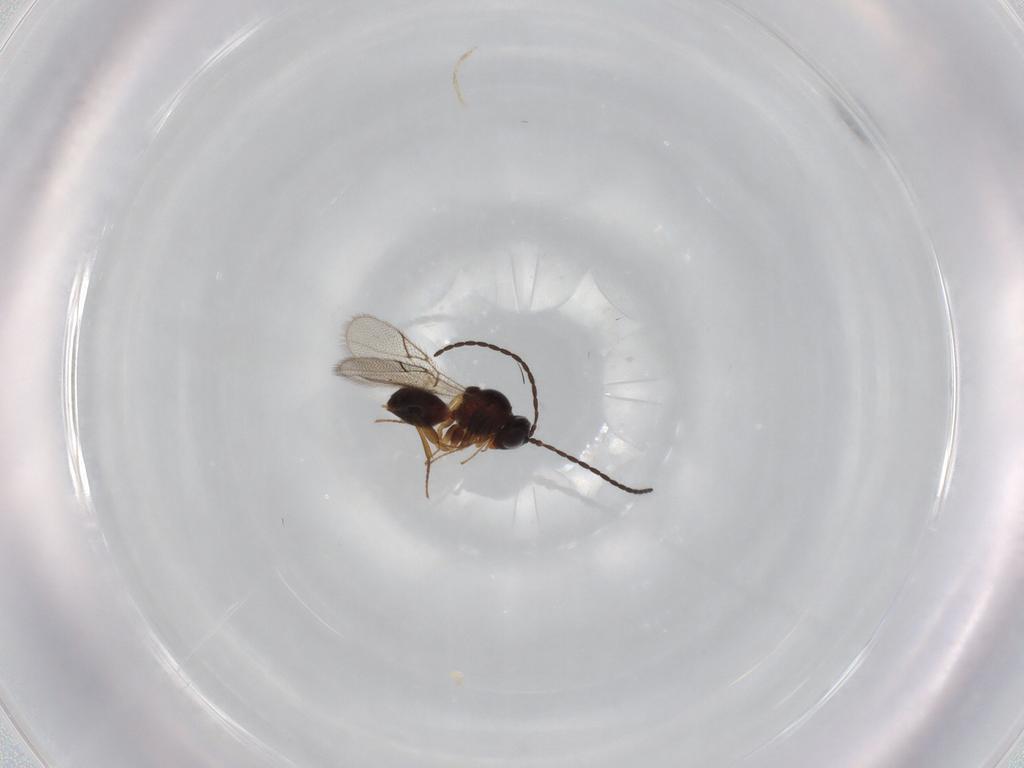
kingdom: Animalia
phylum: Arthropoda
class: Insecta
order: Hymenoptera
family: Figitidae
